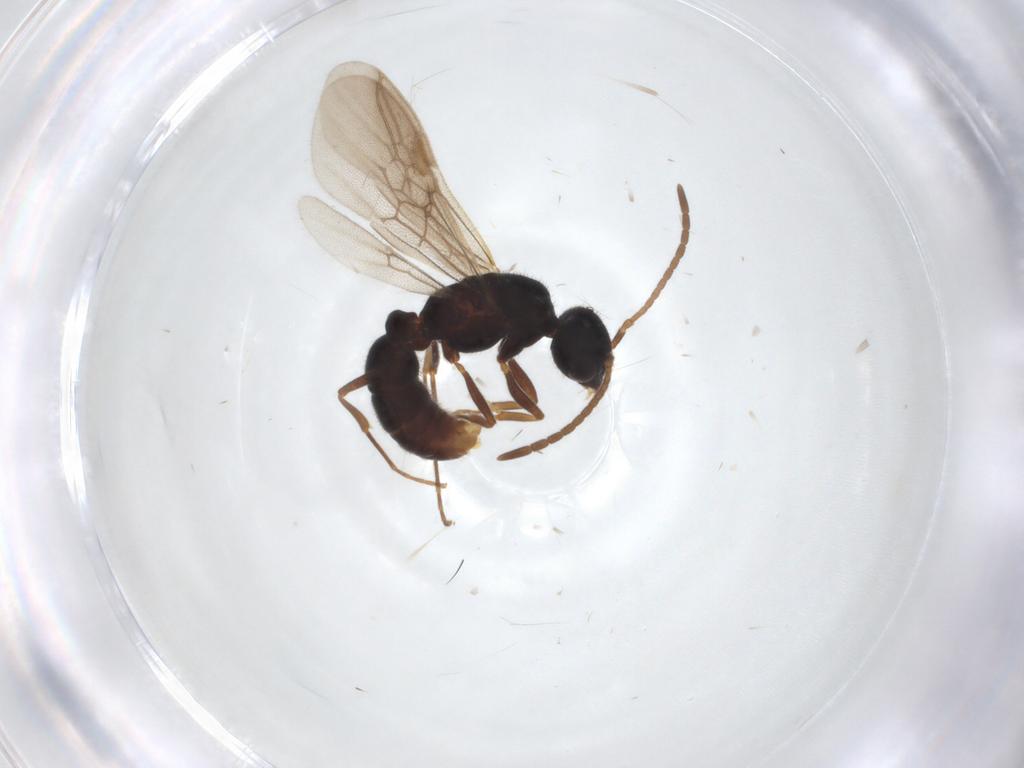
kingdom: Animalia
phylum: Arthropoda
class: Insecta
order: Hymenoptera
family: Formicidae
